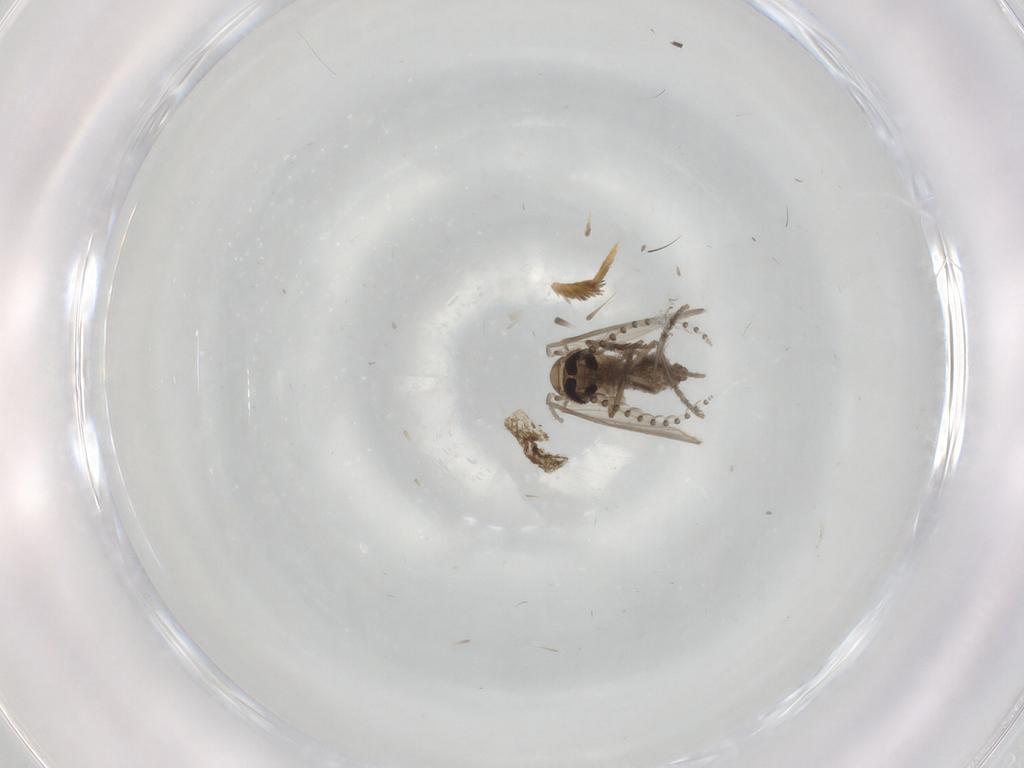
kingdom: Animalia
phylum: Arthropoda
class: Insecta
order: Diptera
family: Psychodidae
